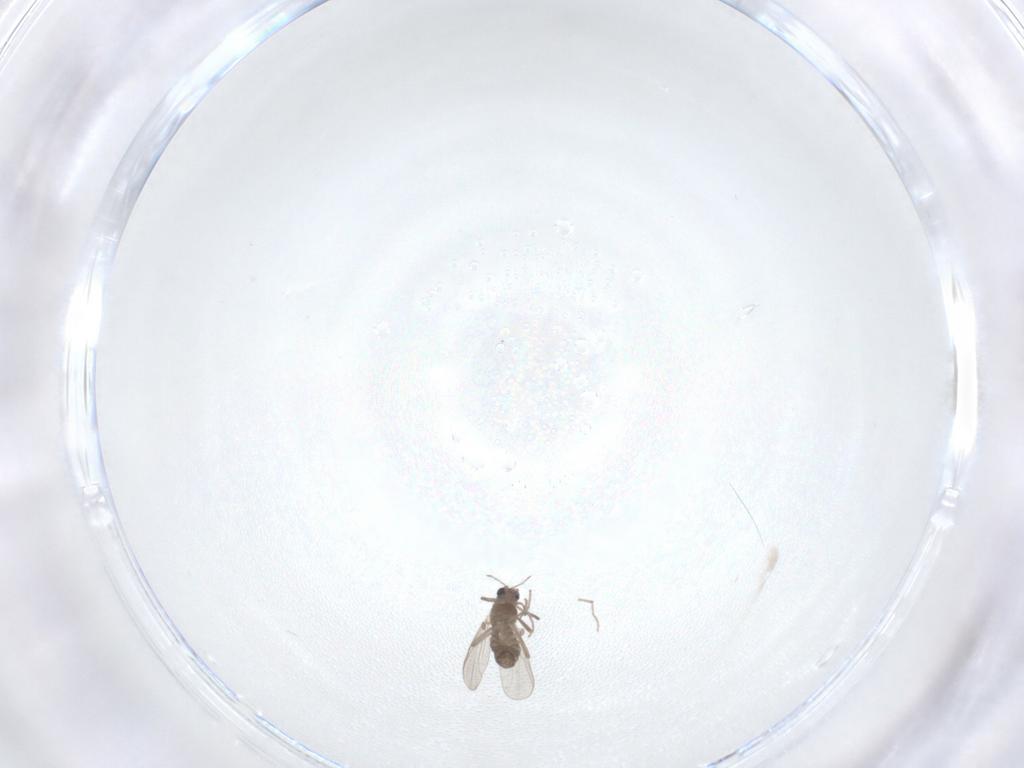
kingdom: Animalia
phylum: Arthropoda
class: Insecta
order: Diptera
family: Chironomidae
